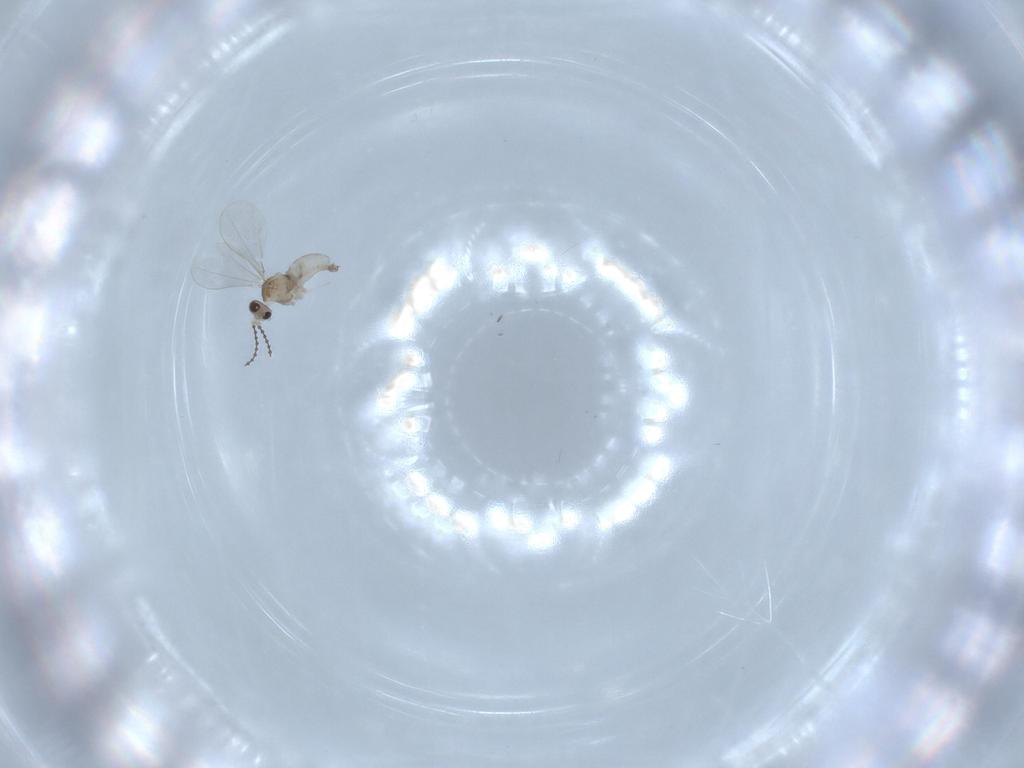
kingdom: Animalia
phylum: Arthropoda
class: Insecta
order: Diptera
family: Cecidomyiidae
